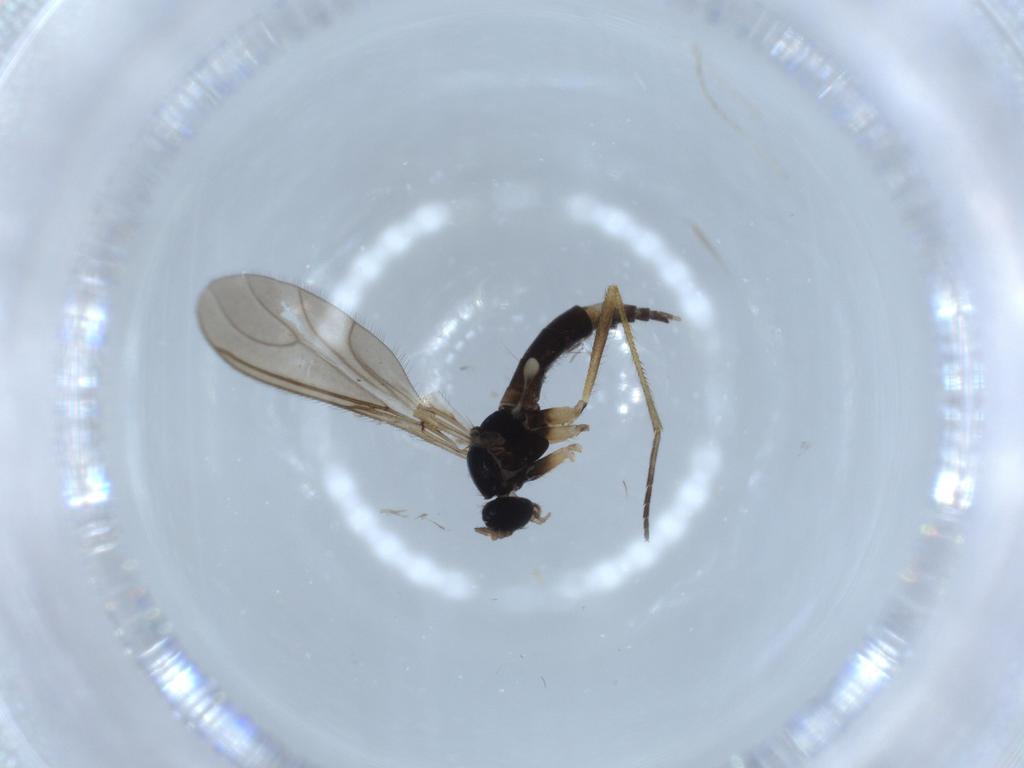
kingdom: Animalia
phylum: Arthropoda
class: Insecta
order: Diptera
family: Sciaridae
